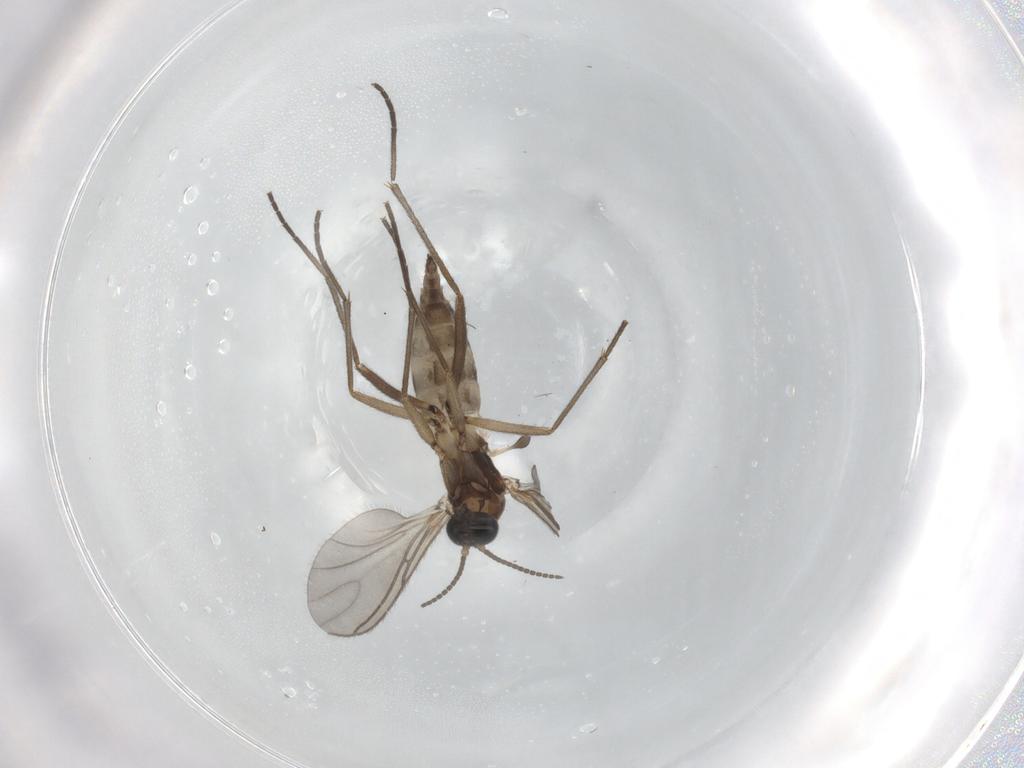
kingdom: Animalia
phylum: Arthropoda
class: Insecta
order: Diptera
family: Sciaridae
